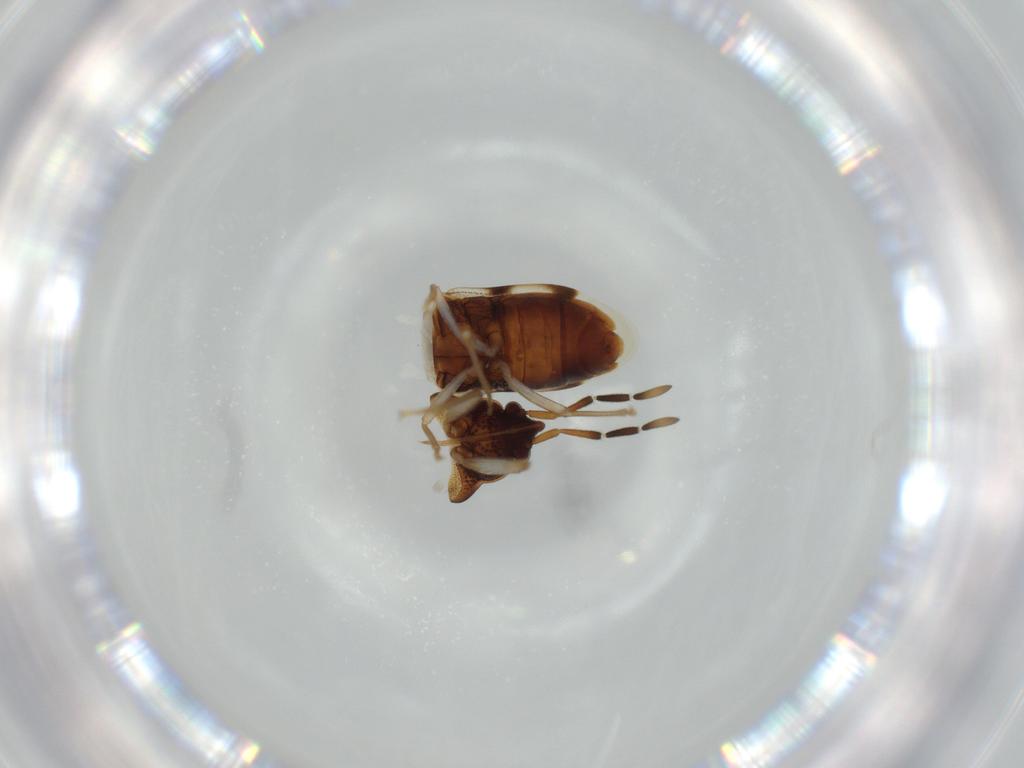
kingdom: Animalia
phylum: Arthropoda
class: Insecta
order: Hemiptera
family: Rhyparochromidae
